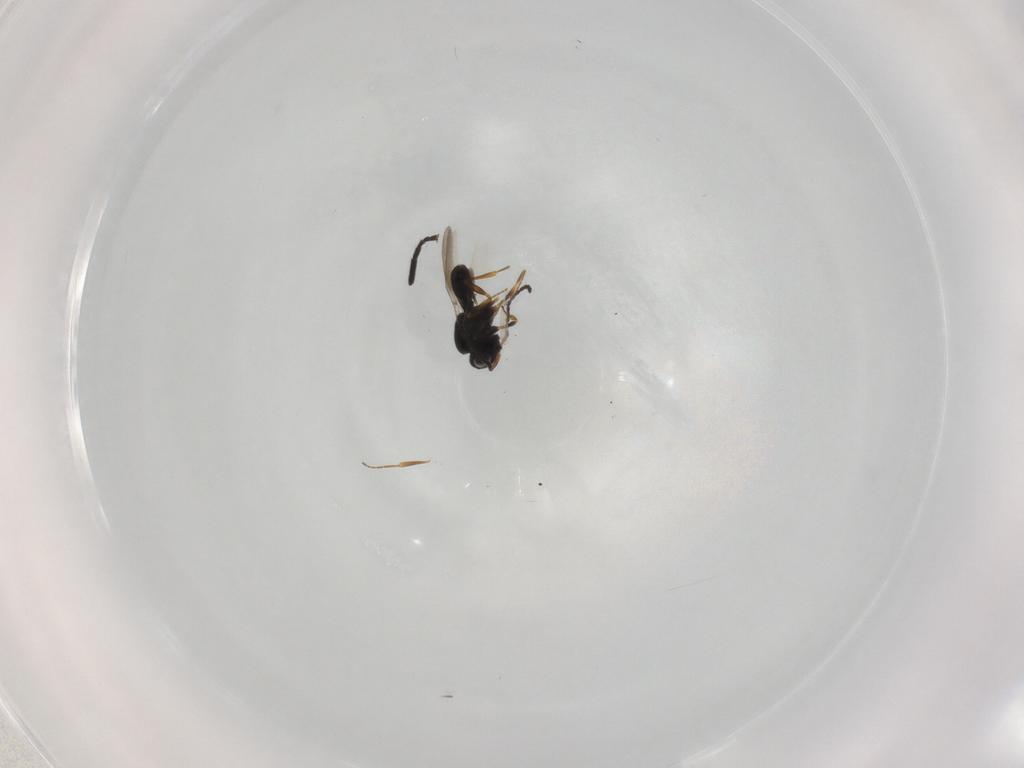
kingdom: Animalia
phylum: Arthropoda
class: Insecta
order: Hymenoptera
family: Scelionidae
